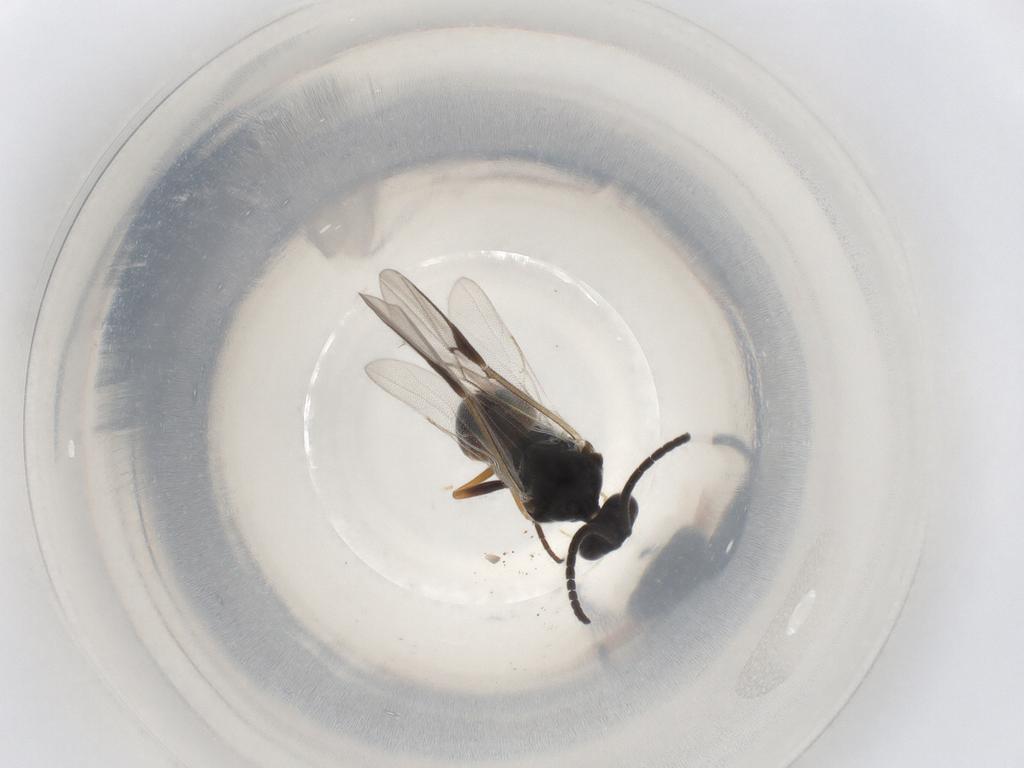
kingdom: Animalia
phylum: Arthropoda
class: Insecta
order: Hymenoptera
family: Braconidae
